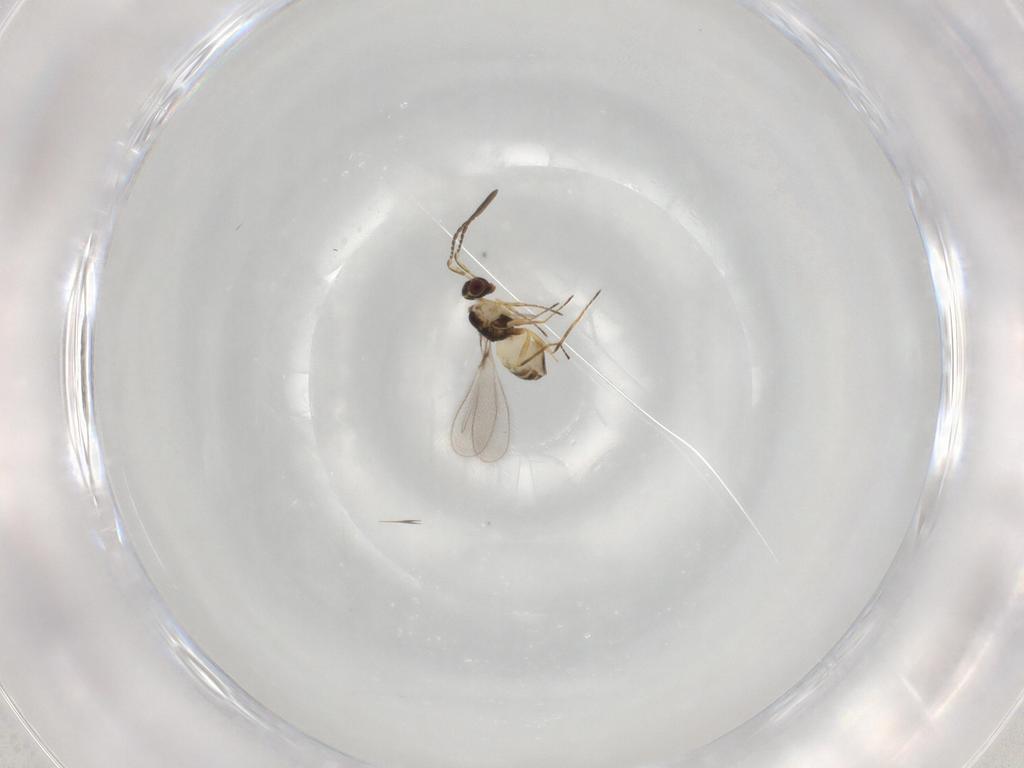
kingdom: Animalia
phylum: Arthropoda
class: Insecta
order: Hymenoptera
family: Mymaridae
